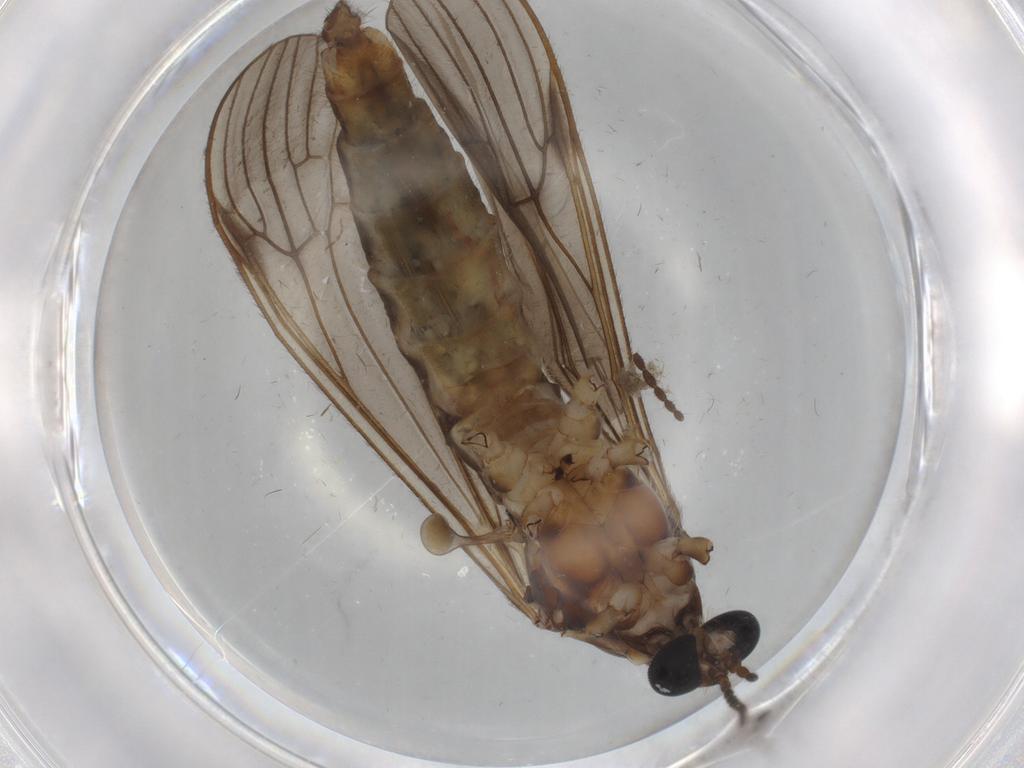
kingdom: Animalia
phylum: Arthropoda
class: Insecta
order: Diptera
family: Limoniidae
